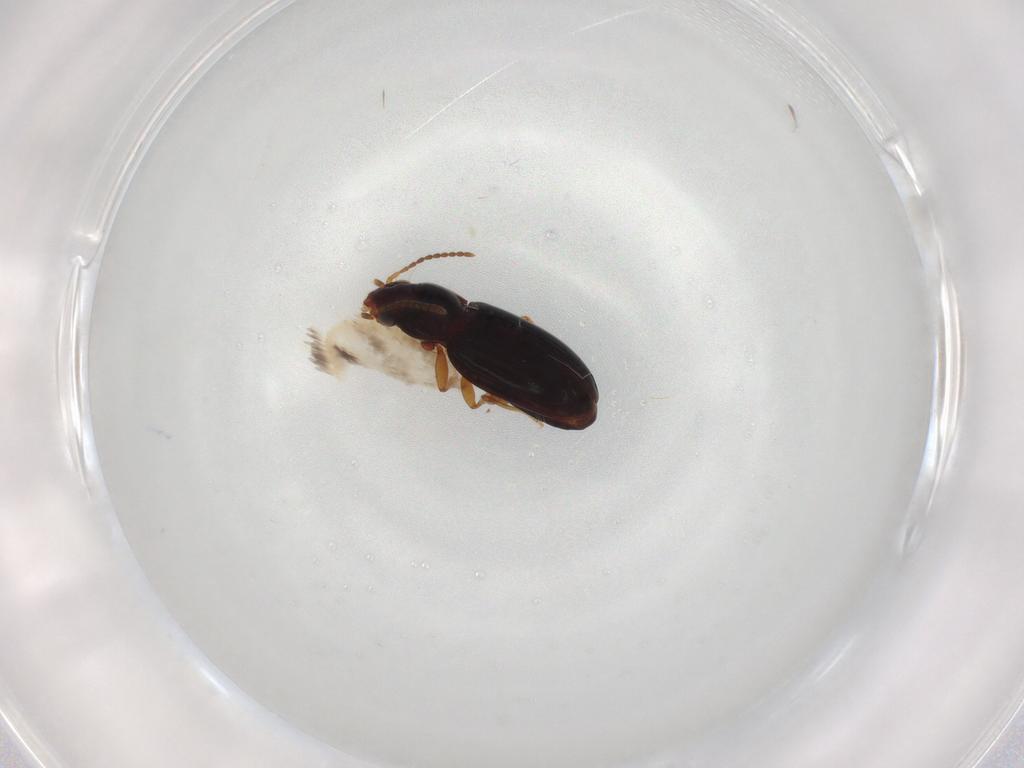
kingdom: Animalia
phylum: Arthropoda
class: Insecta
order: Coleoptera
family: Carabidae
